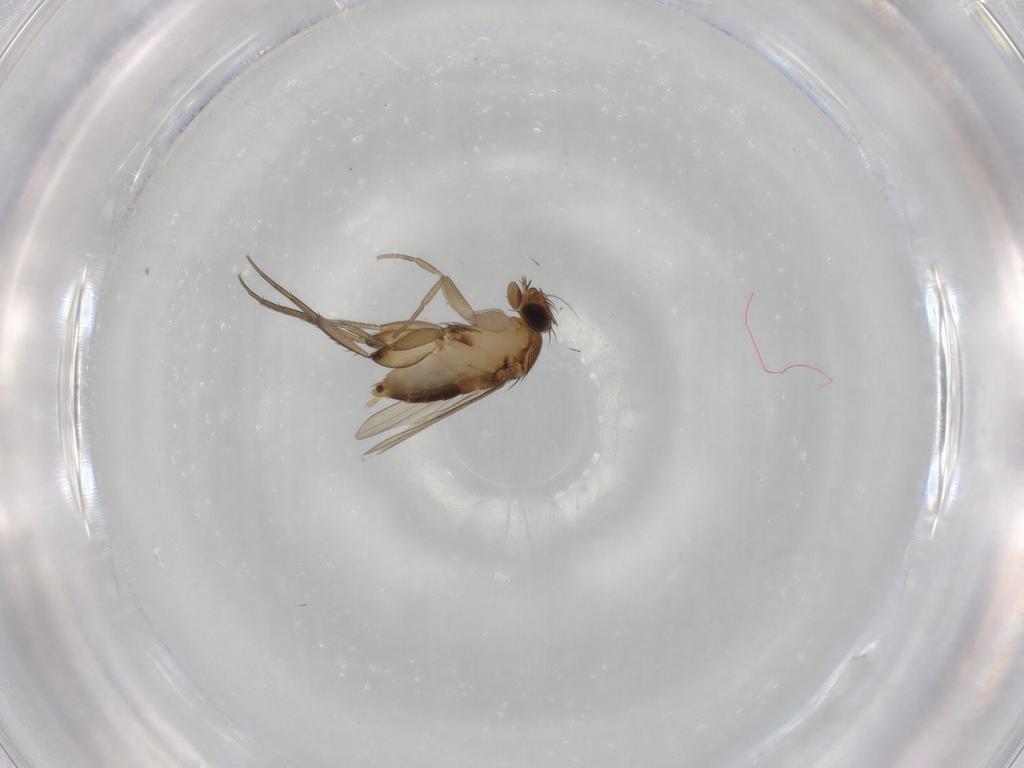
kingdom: Animalia
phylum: Arthropoda
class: Insecta
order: Diptera
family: Phoridae
